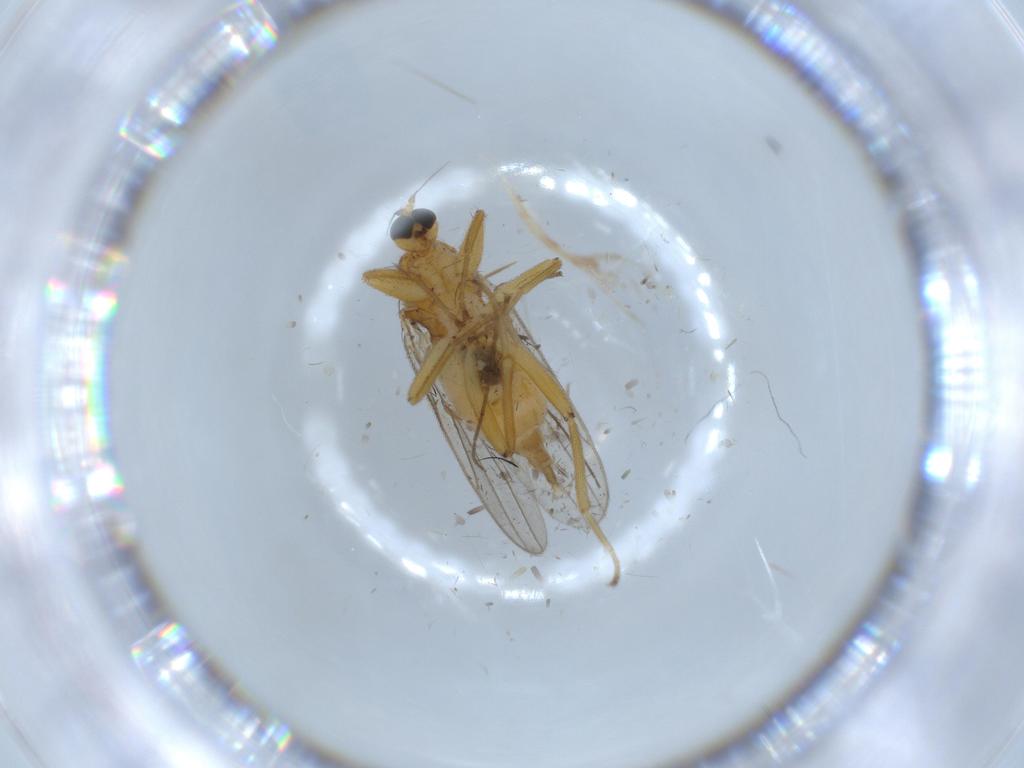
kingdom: Animalia
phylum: Arthropoda
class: Insecta
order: Diptera
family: Hybotidae
